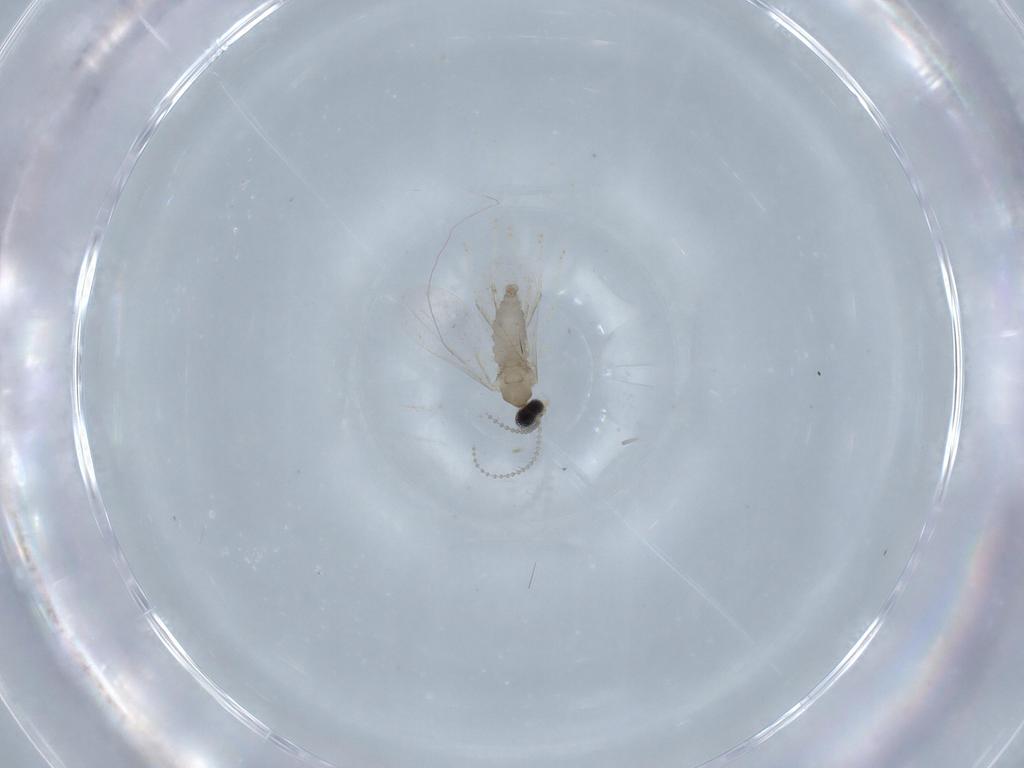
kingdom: Animalia
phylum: Arthropoda
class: Insecta
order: Diptera
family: Cecidomyiidae
